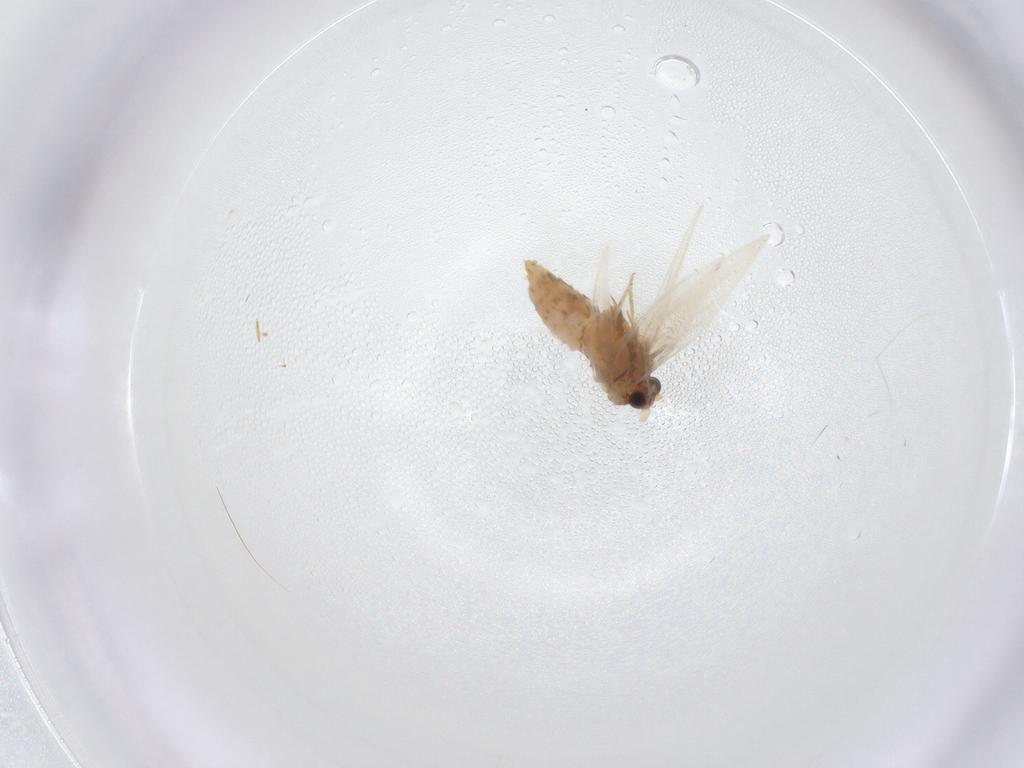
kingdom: Animalia
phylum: Arthropoda
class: Insecta
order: Lepidoptera
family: Nepticulidae
